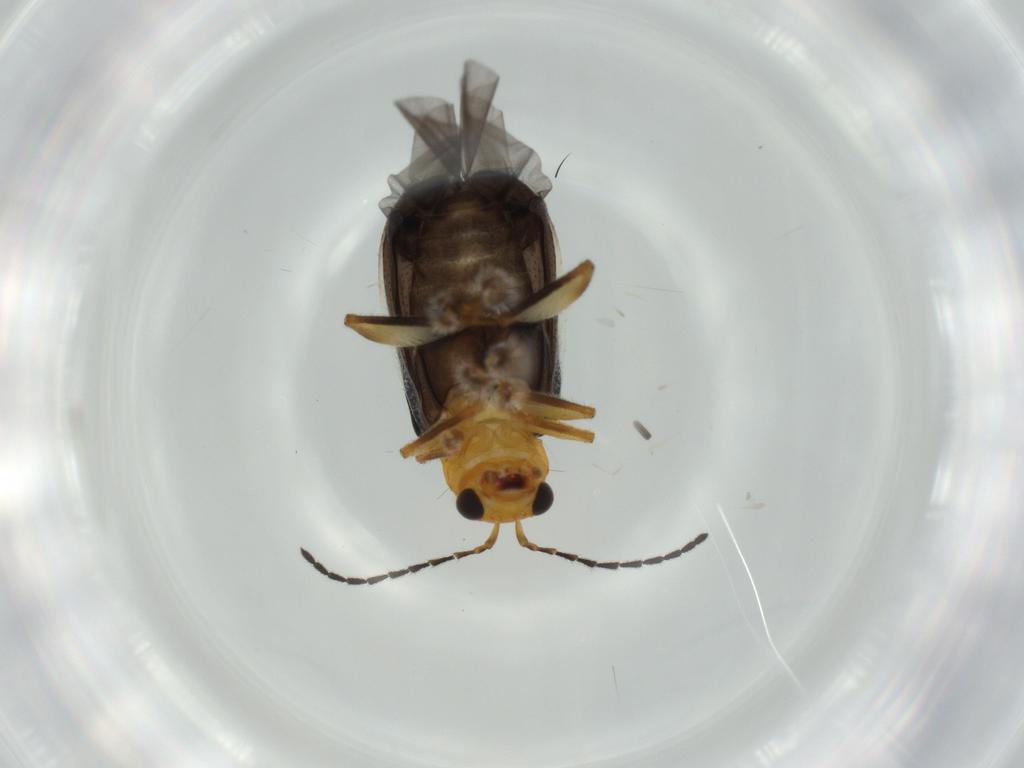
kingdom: Animalia
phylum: Arthropoda
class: Insecta
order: Coleoptera
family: Chrysomelidae
